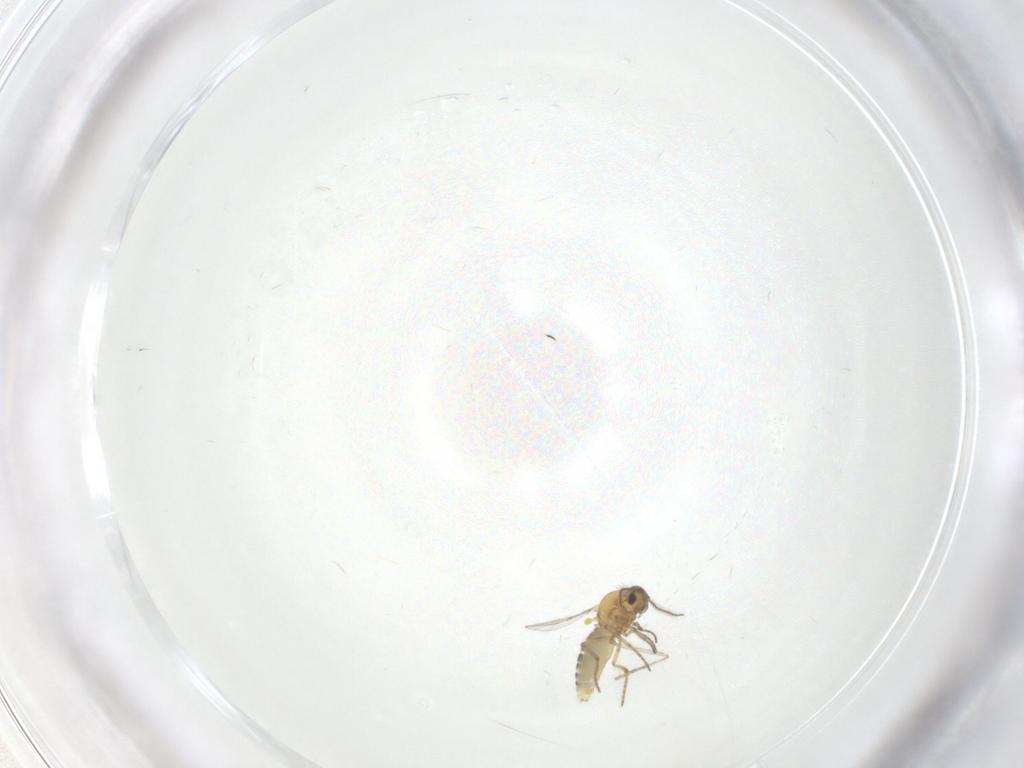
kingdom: Animalia
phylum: Arthropoda
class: Insecta
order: Diptera
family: Ceratopogonidae
